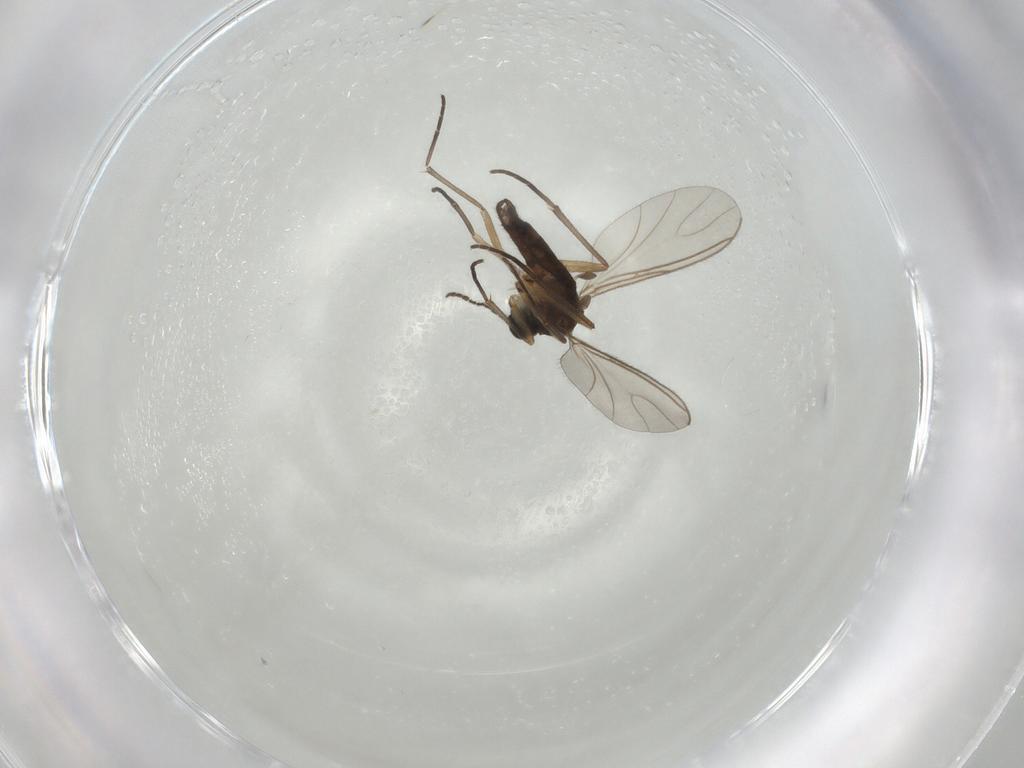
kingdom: Animalia
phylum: Arthropoda
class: Insecta
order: Diptera
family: Sciaridae
